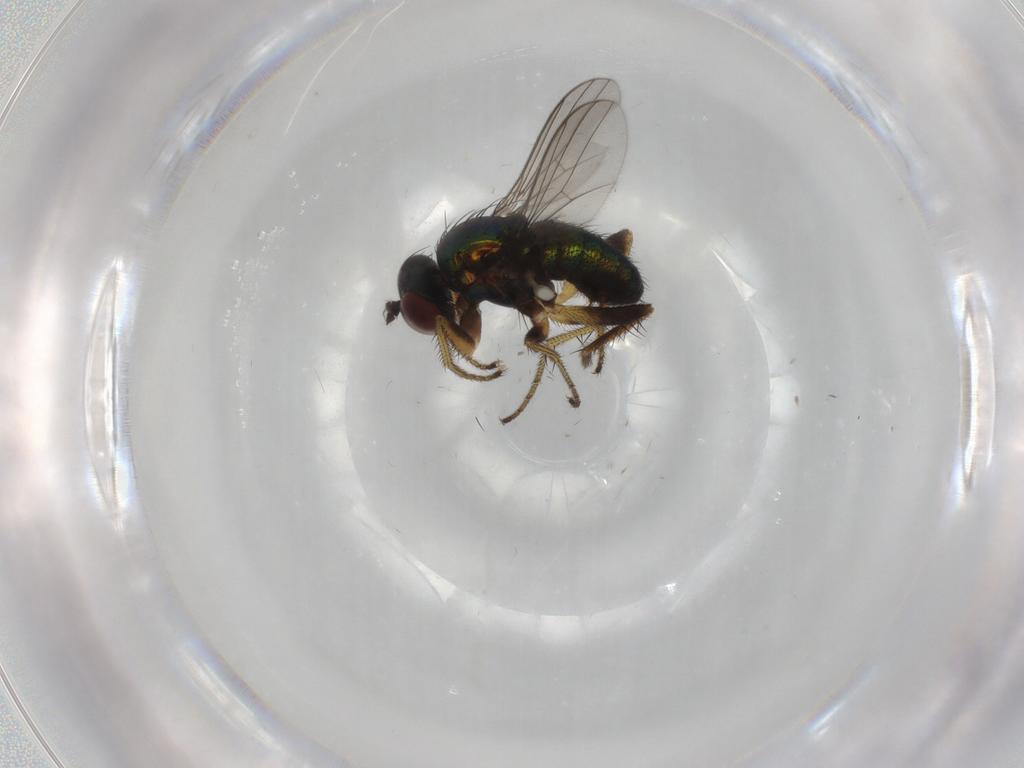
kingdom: Animalia
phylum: Arthropoda
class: Insecta
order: Diptera
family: Dolichopodidae
